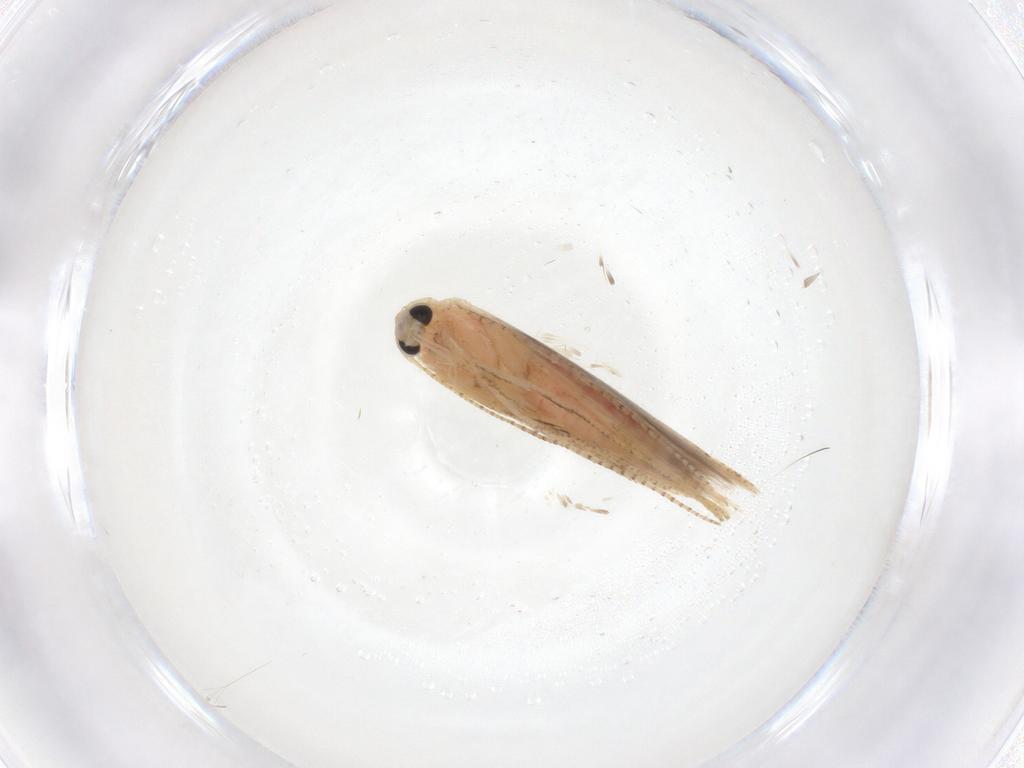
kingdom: Animalia
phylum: Arthropoda
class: Insecta
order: Lepidoptera
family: Bedelliidae
